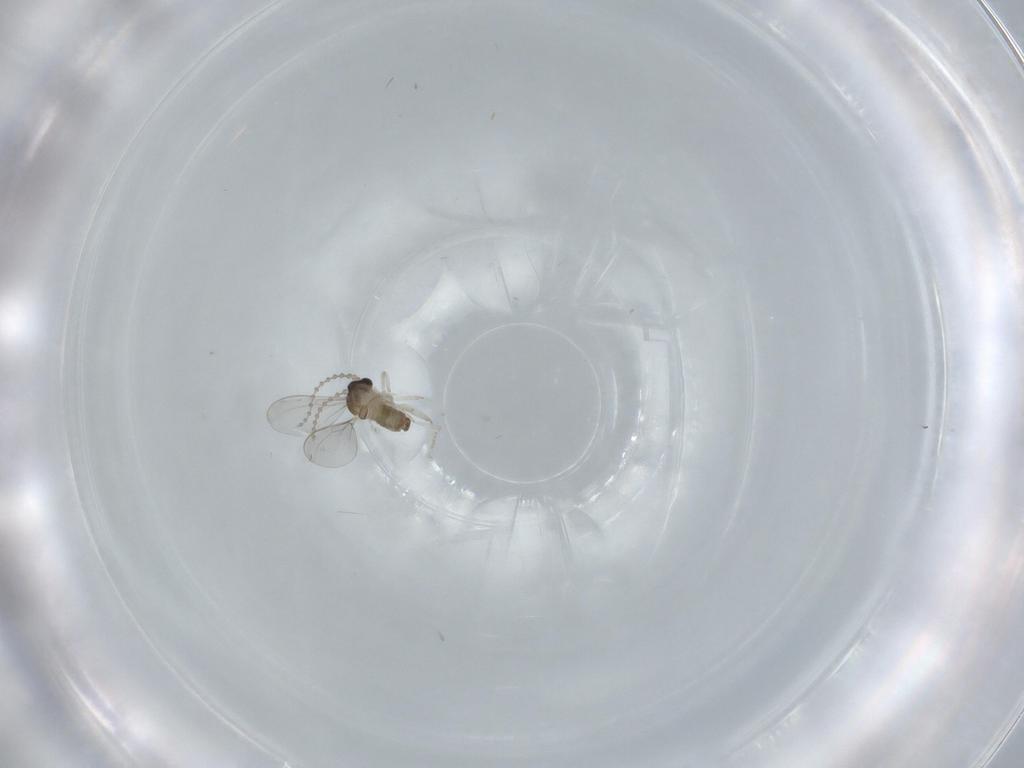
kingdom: Animalia
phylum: Arthropoda
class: Insecta
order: Diptera
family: Cecidomyiidae
